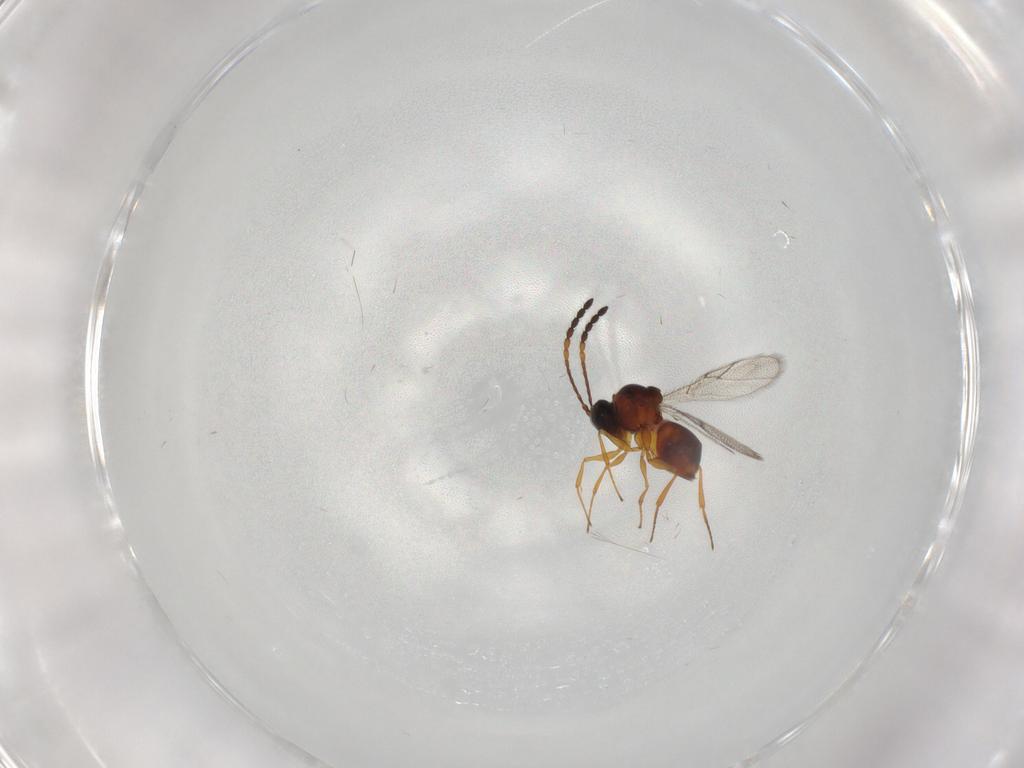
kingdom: Animalia
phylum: Arthropoda
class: Insecta
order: Hymenoptera
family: Figitidae
